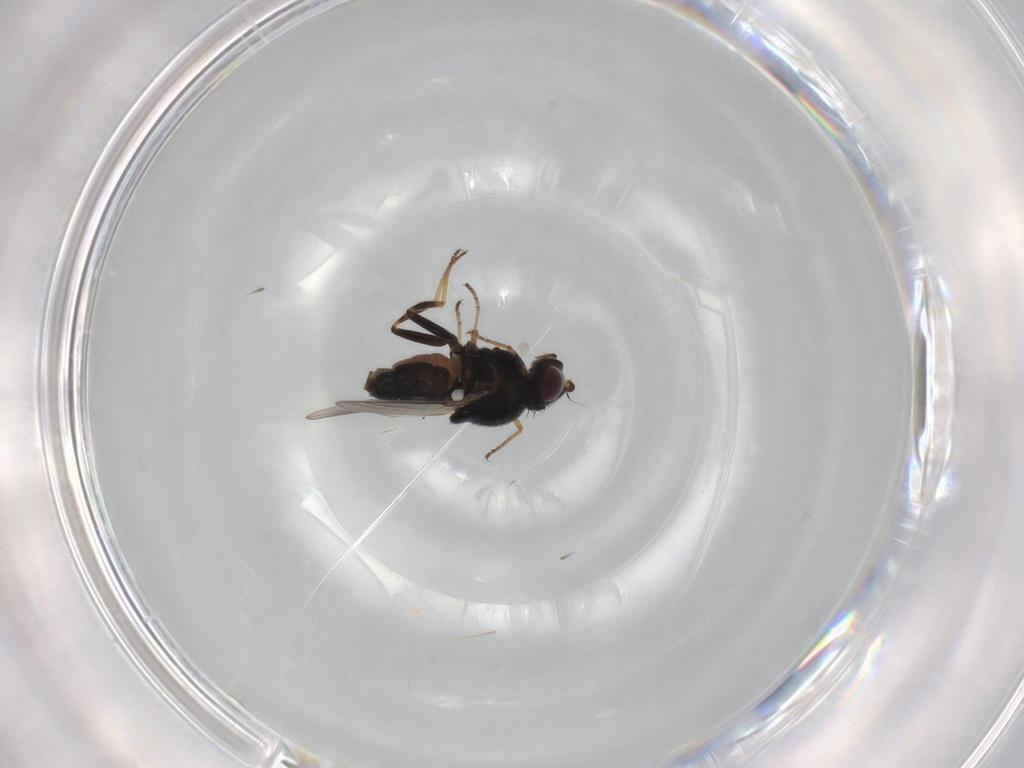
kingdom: Animalia
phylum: Arthropoda
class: Insecta
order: Diptera
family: Chloropidae
